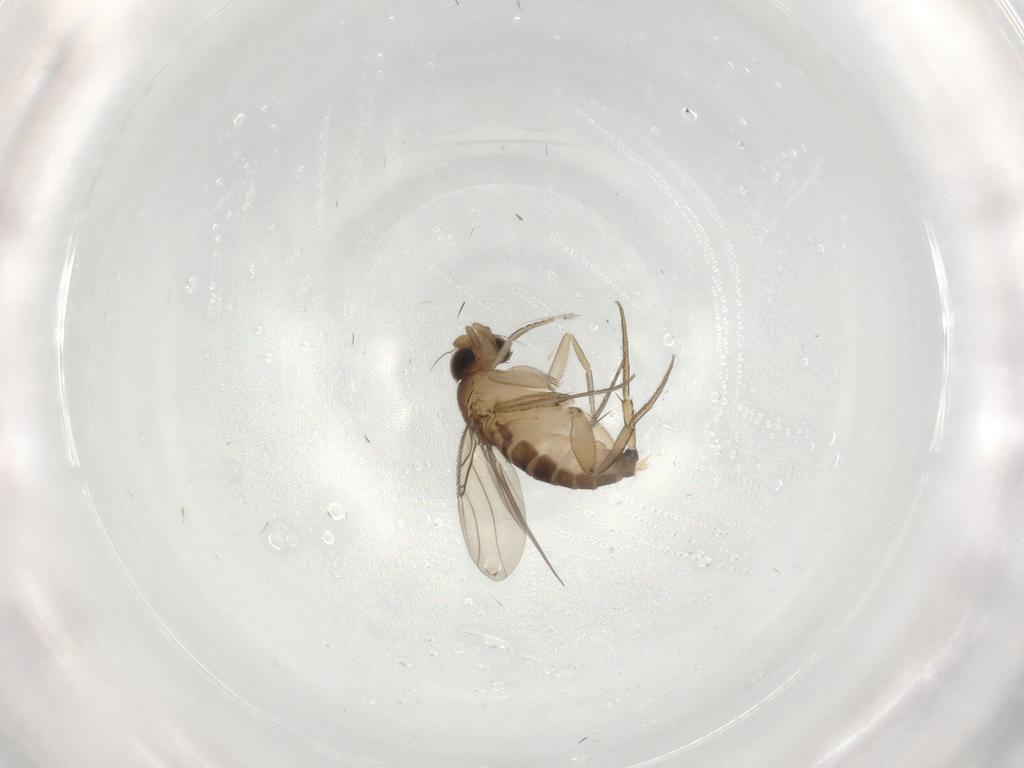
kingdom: Animalia
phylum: Arthropoda
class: Insecta
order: Diptera
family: Phoridae
